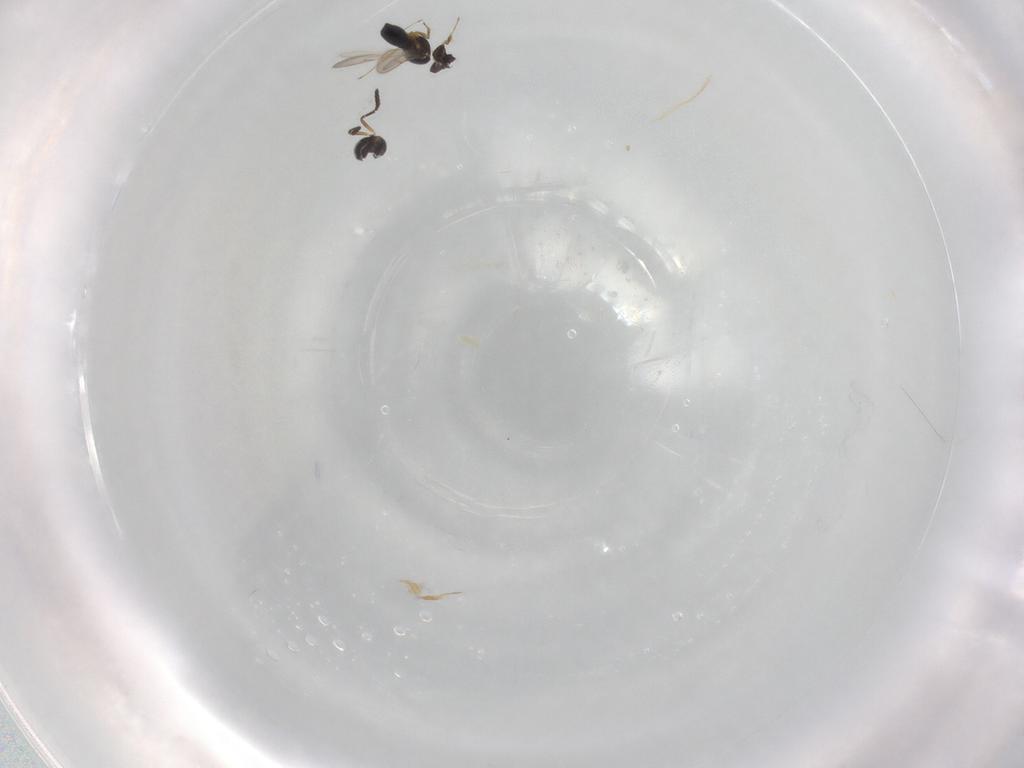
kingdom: Animalia
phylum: Arthropoda
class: Insecta
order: Hymenoptera
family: Scelionidae
